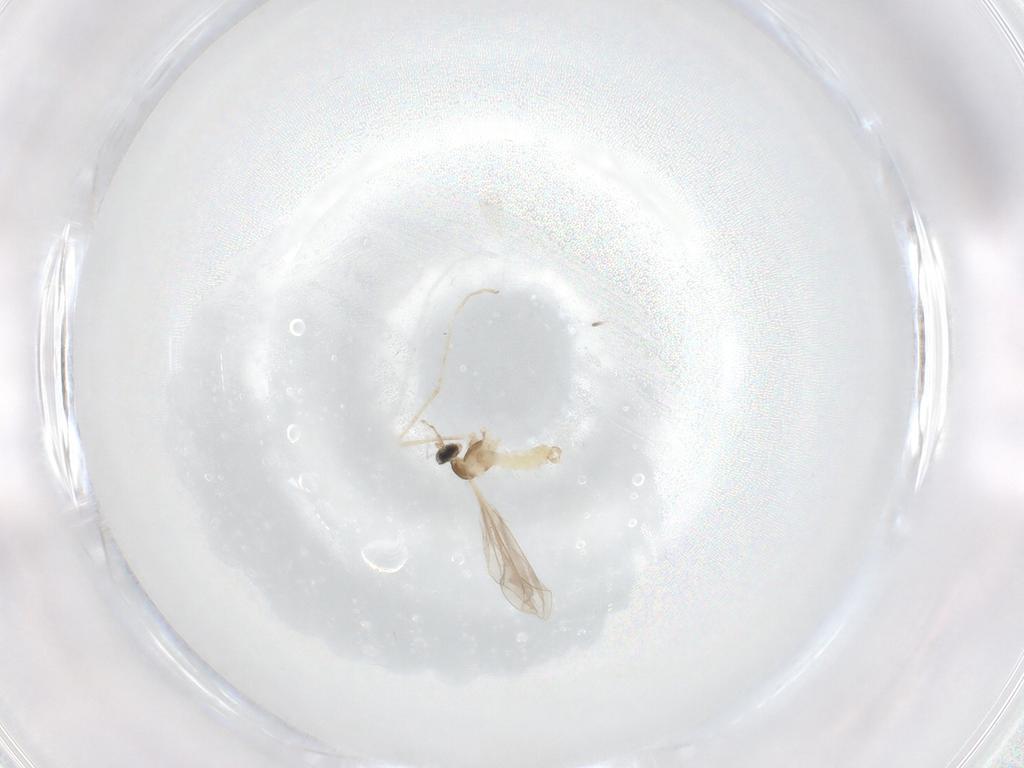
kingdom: Animalia
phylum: Arthropoda
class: Insecta
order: Diptera
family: Cecidomyiidae
